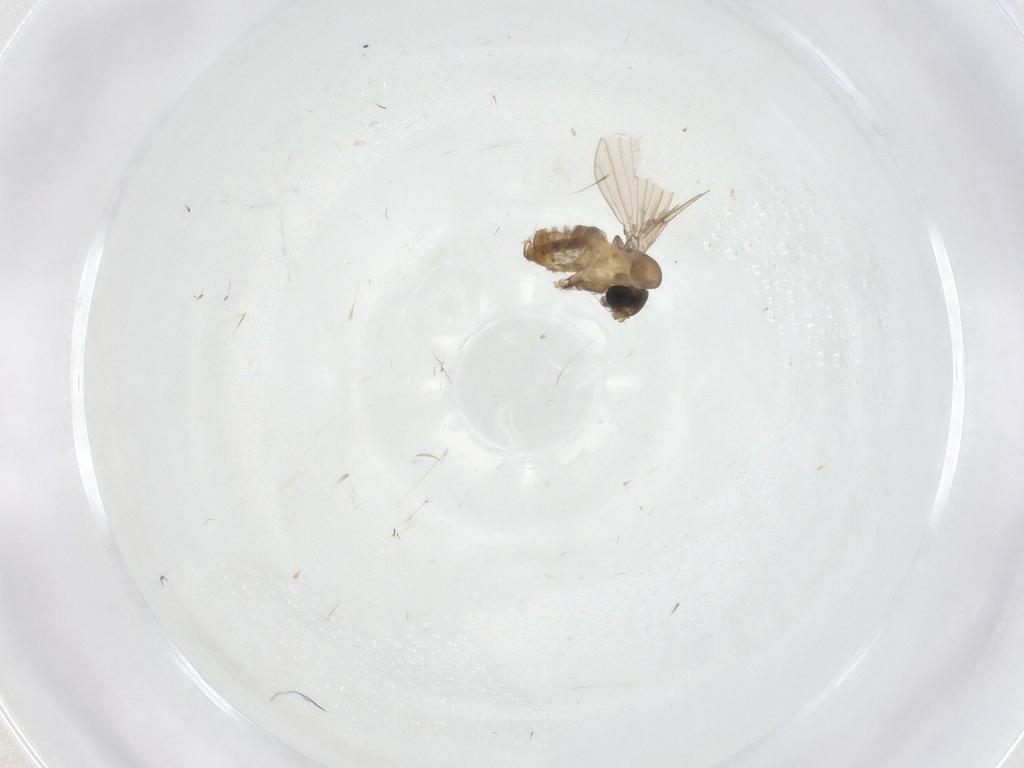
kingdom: Animalia
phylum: Arthropoda
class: Insecta
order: Diptera
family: Psychodidae
